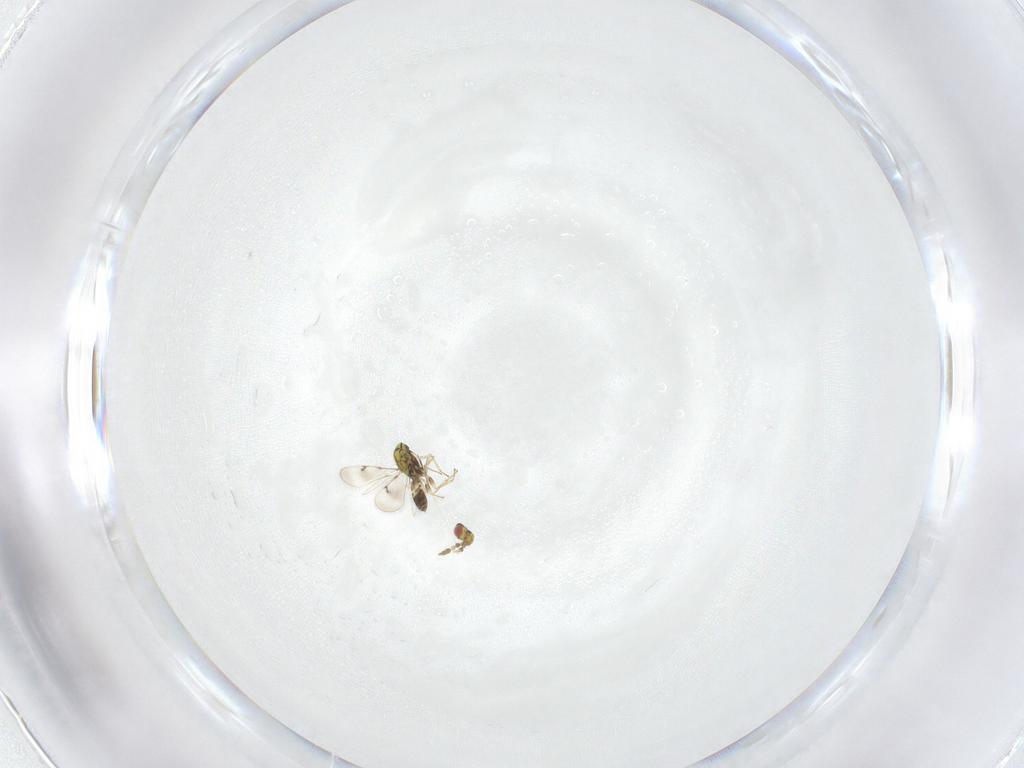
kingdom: Animalia
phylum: Arthropoda
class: Insecta
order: Hymenoptera
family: Eulophidae
